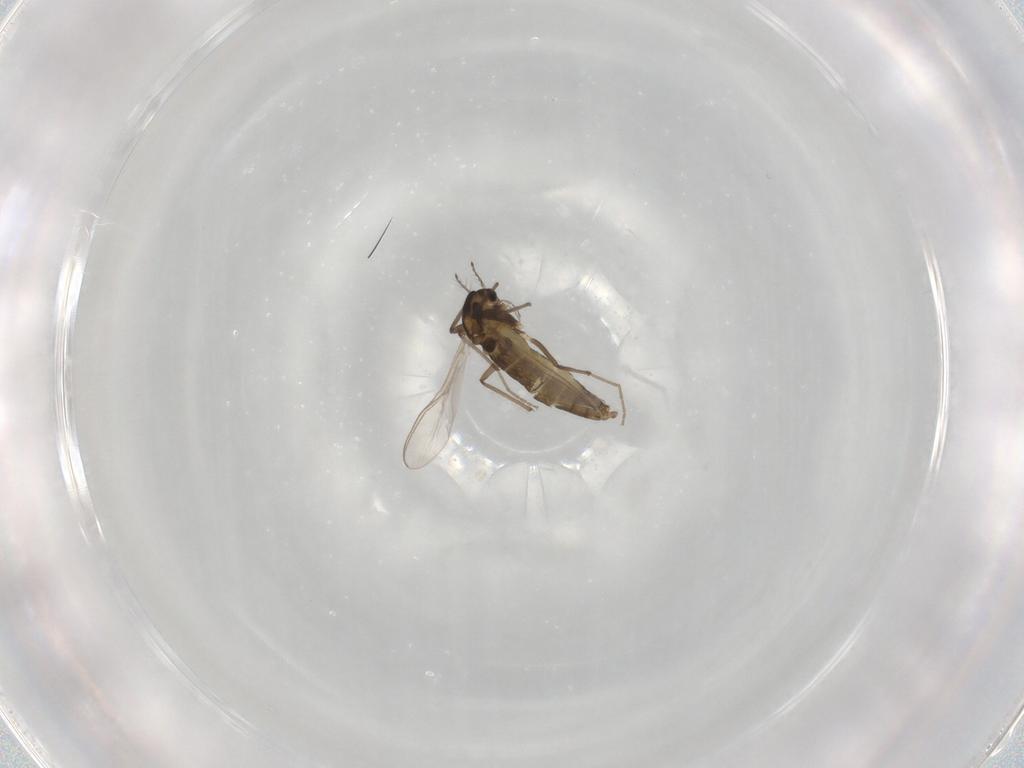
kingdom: Animalia
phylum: Arthropoda
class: Insecta
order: Diptera
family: Chironomidae
